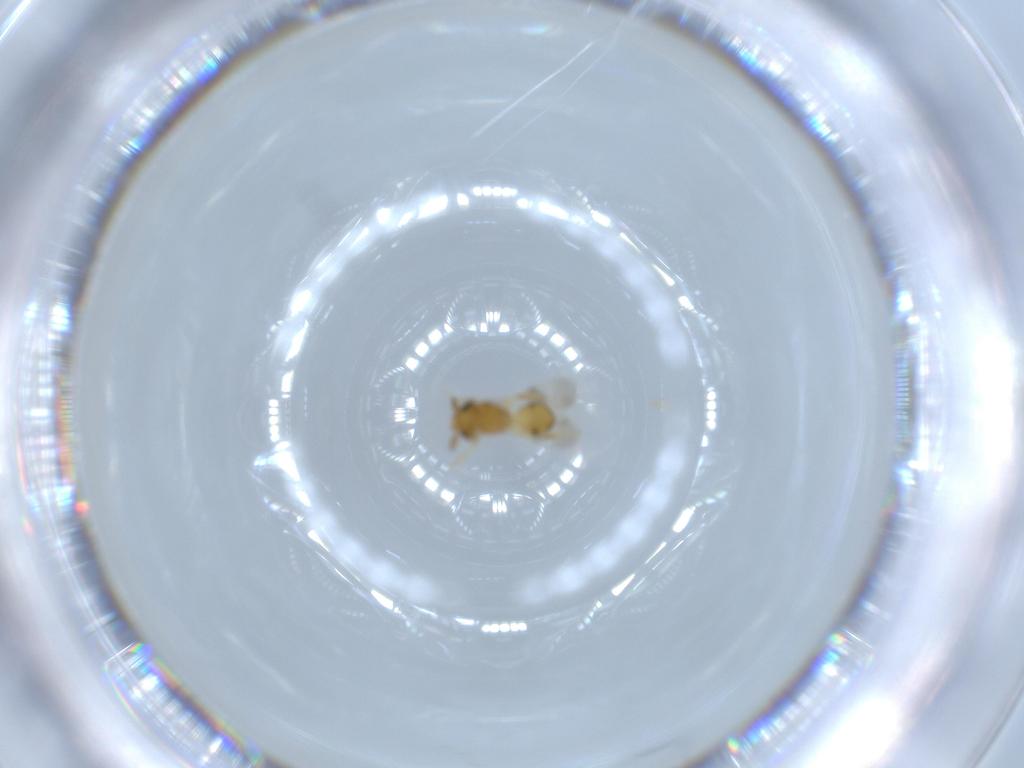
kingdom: Animalia
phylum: Arthropoda
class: Insecta
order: Hymenoptera
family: Scelionidae
